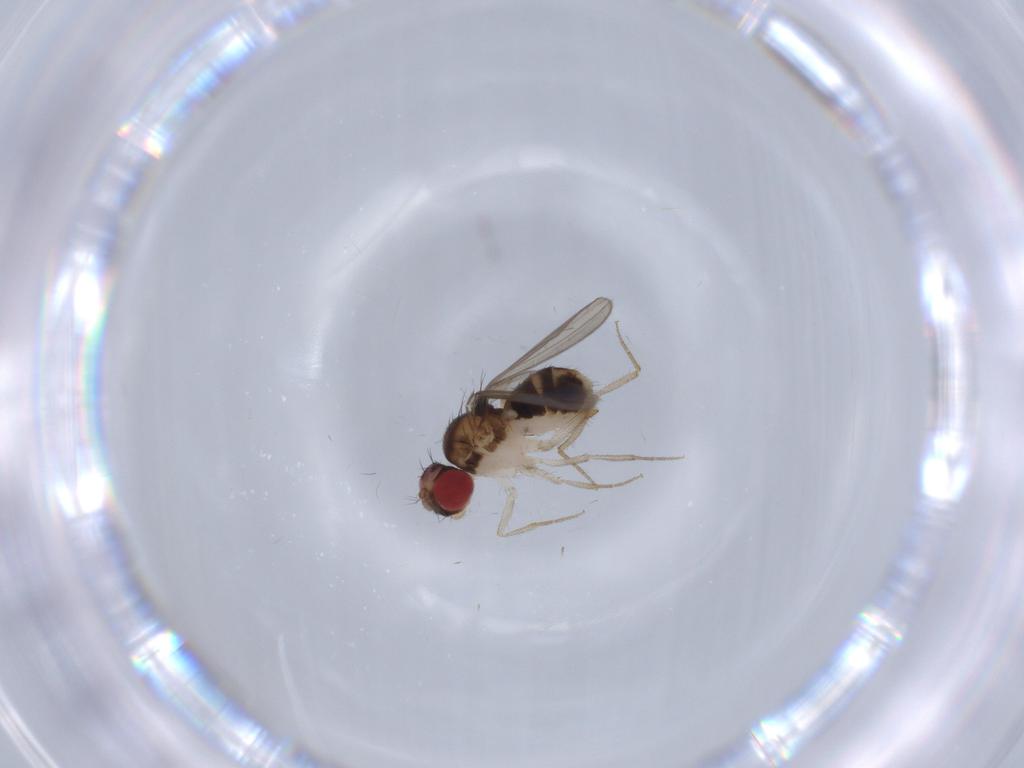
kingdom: Animalia
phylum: Arthropoda
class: Insecta
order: Diptera
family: Drosophilidae
